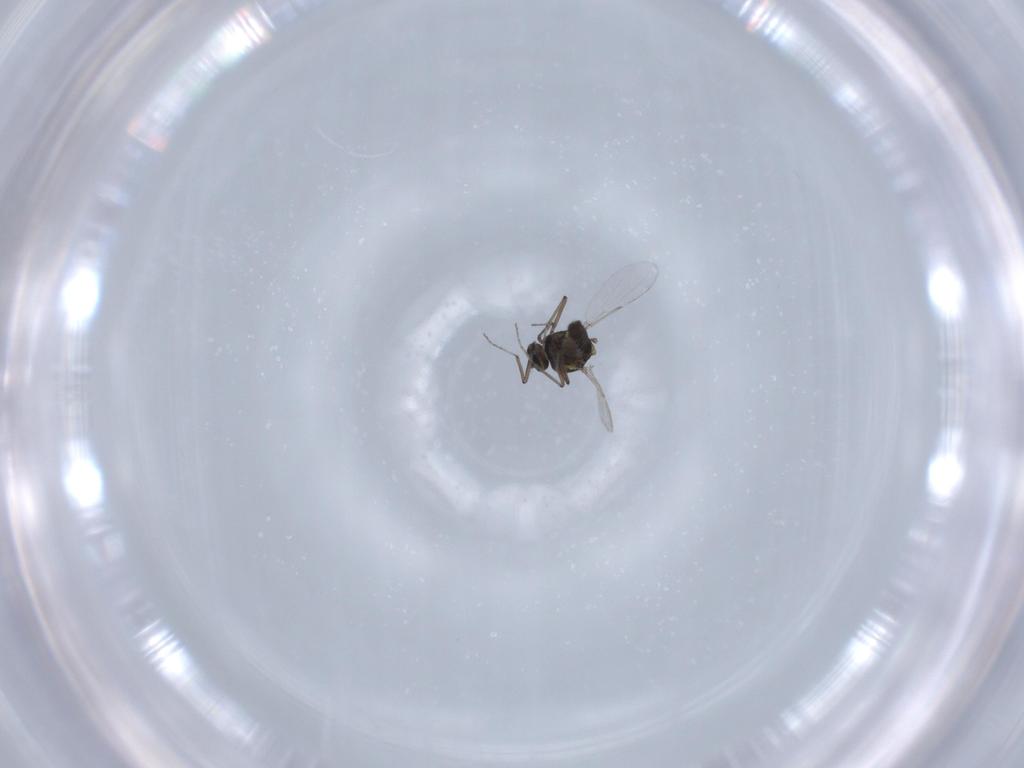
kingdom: Animalia
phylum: Arthropoda
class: Insecta
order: Diptera
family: Ceratopogonidae
